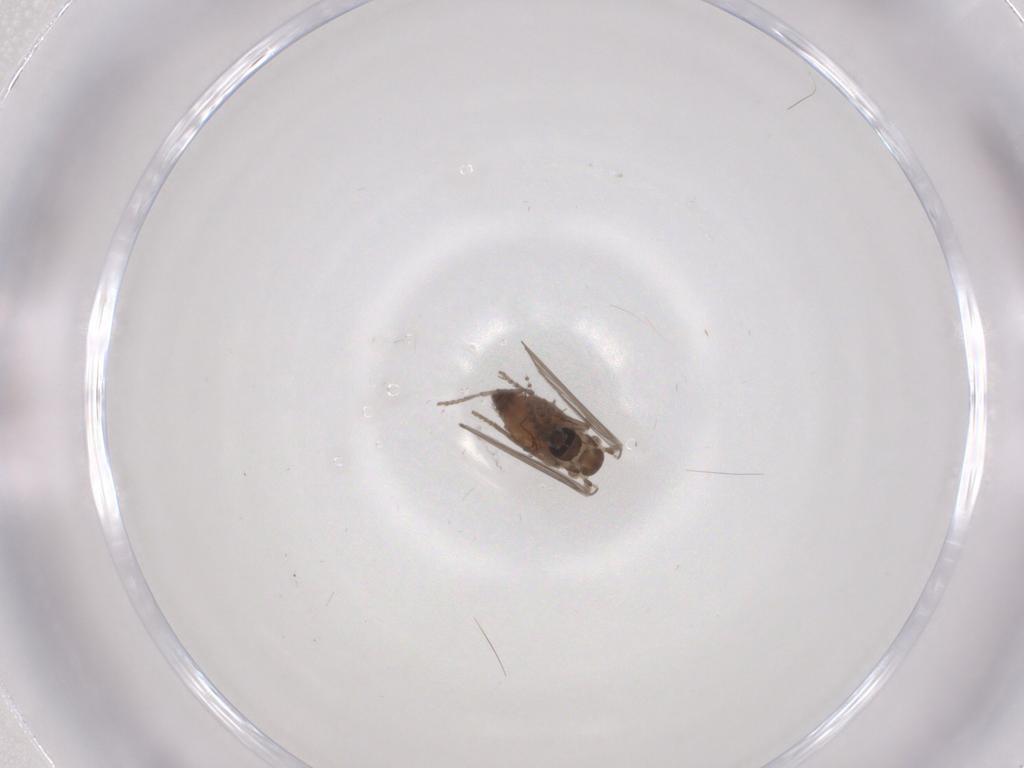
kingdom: Animalia
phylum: Arthropoda
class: Insecta
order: Diptera
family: Psychodidae
